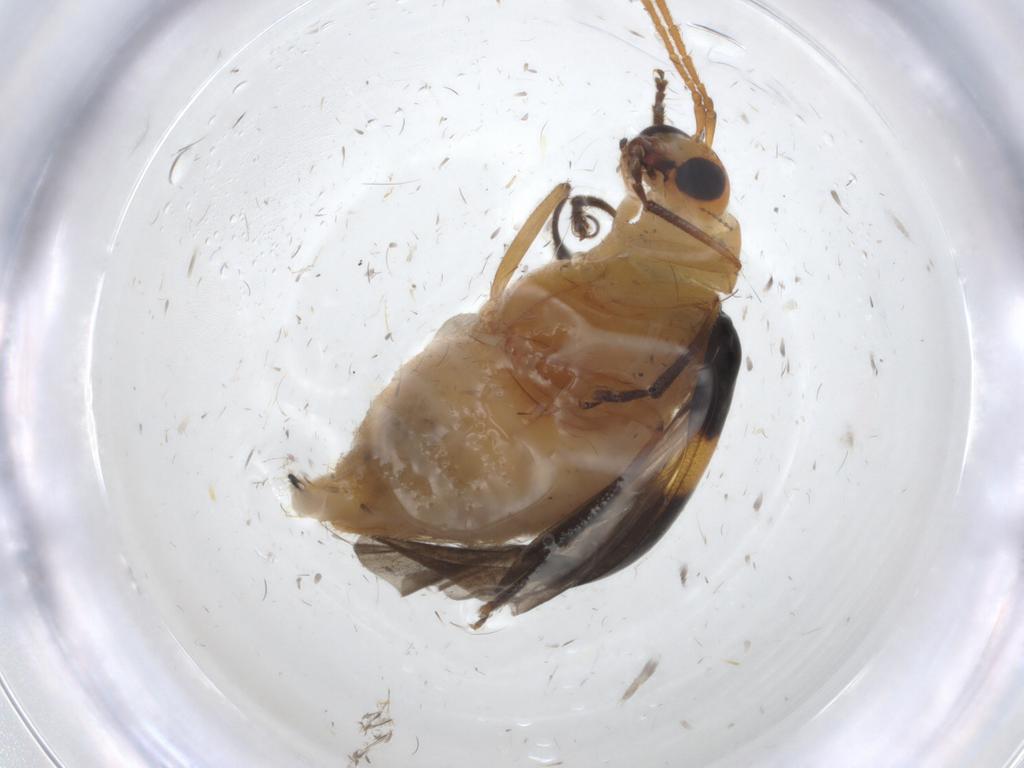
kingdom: Animalia
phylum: Arthropoda
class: Insecta
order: Coleoptera
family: Chrysomelidae
